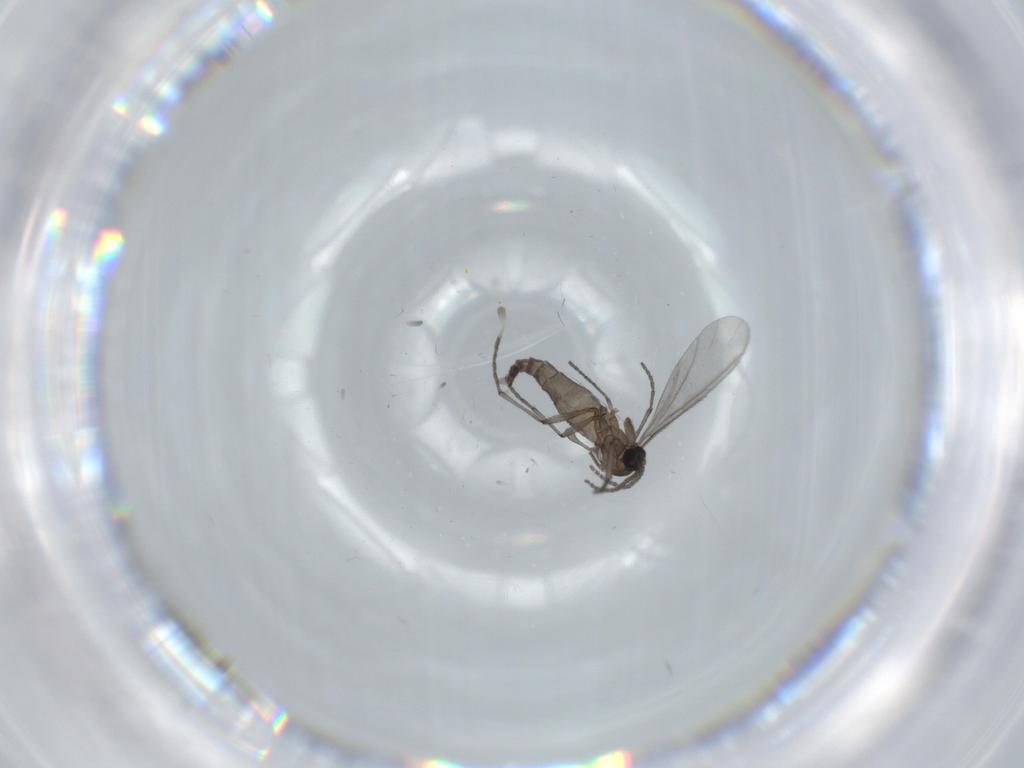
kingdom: Animalia
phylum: Arthropoda
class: Insecta
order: Diptera
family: Sciaridae
